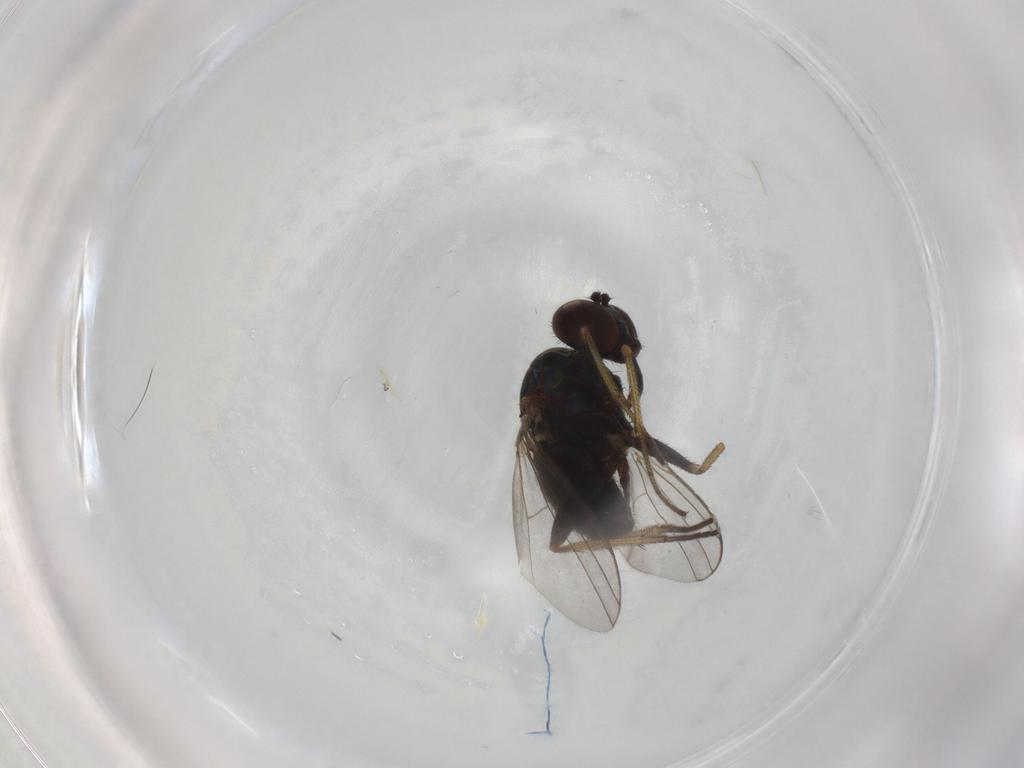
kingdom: Animalia
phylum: Arthropoda
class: Insecta
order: Diptera
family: Dolichopodidae
